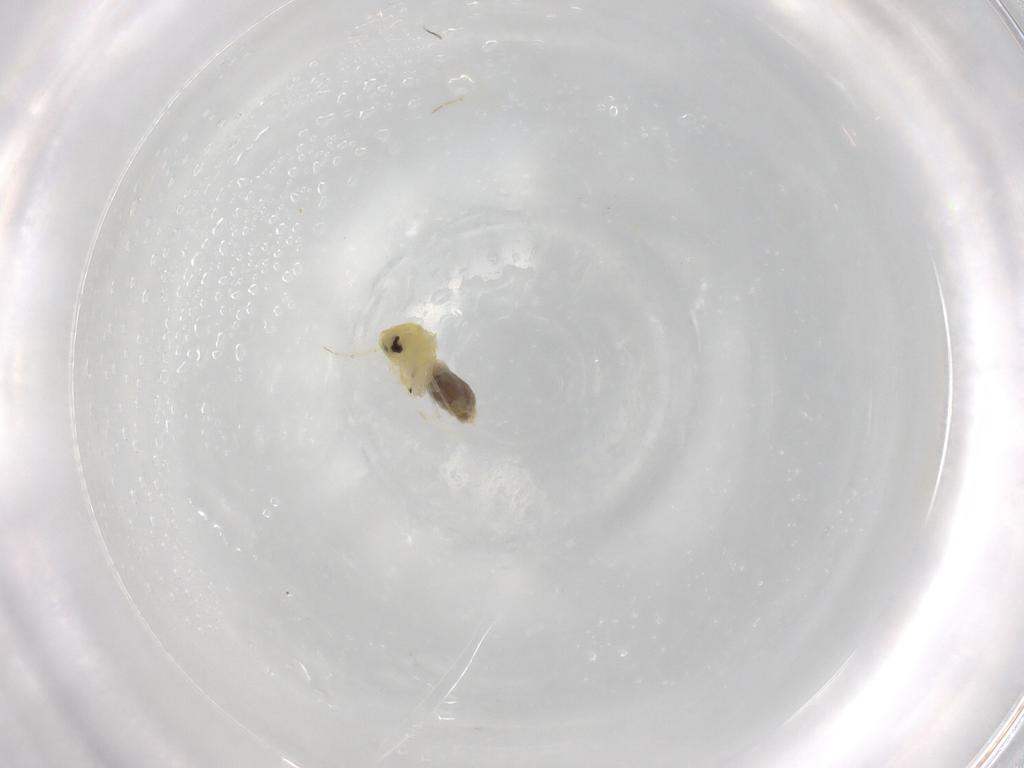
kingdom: Animalia
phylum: Arthropoda
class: Insecta
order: Hemiptera
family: Aleyrodidae
